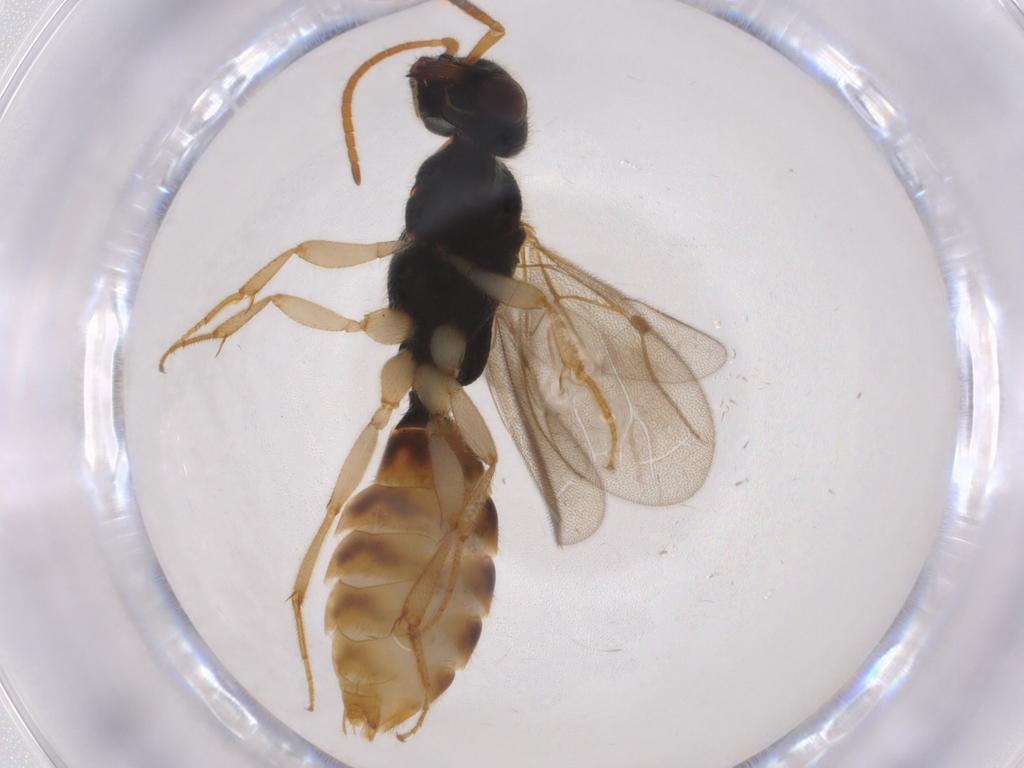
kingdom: Animalia
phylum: Arthropoda
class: Insecta
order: Hymenoptera
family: Bethylidae
